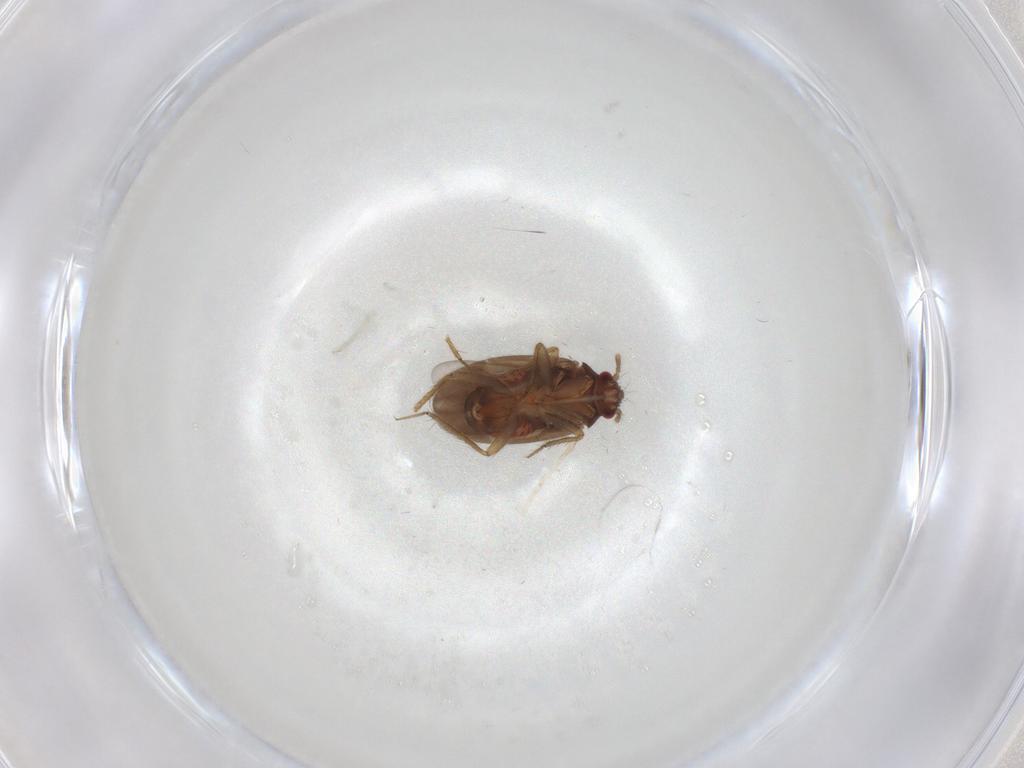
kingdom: Animalia
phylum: Arthropoda
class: Insecta
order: Hemiptera
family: Ceratocombidae
